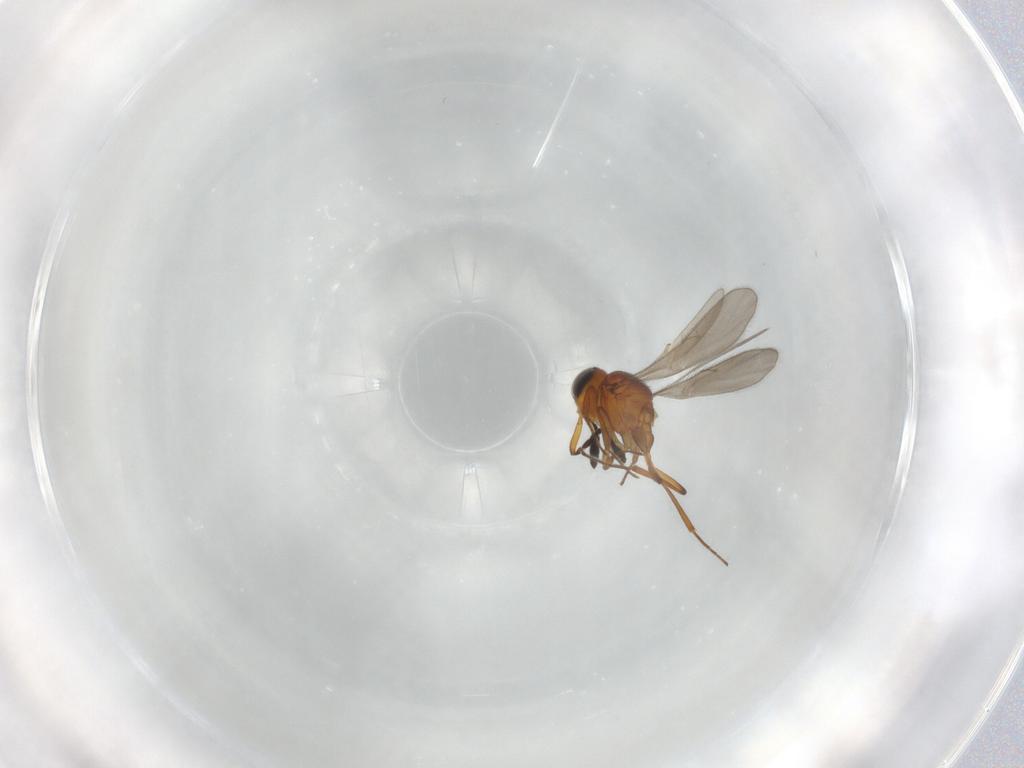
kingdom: Animalia
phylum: Arthropoda
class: Insecta
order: Hymenoptera
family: Scelionidae
